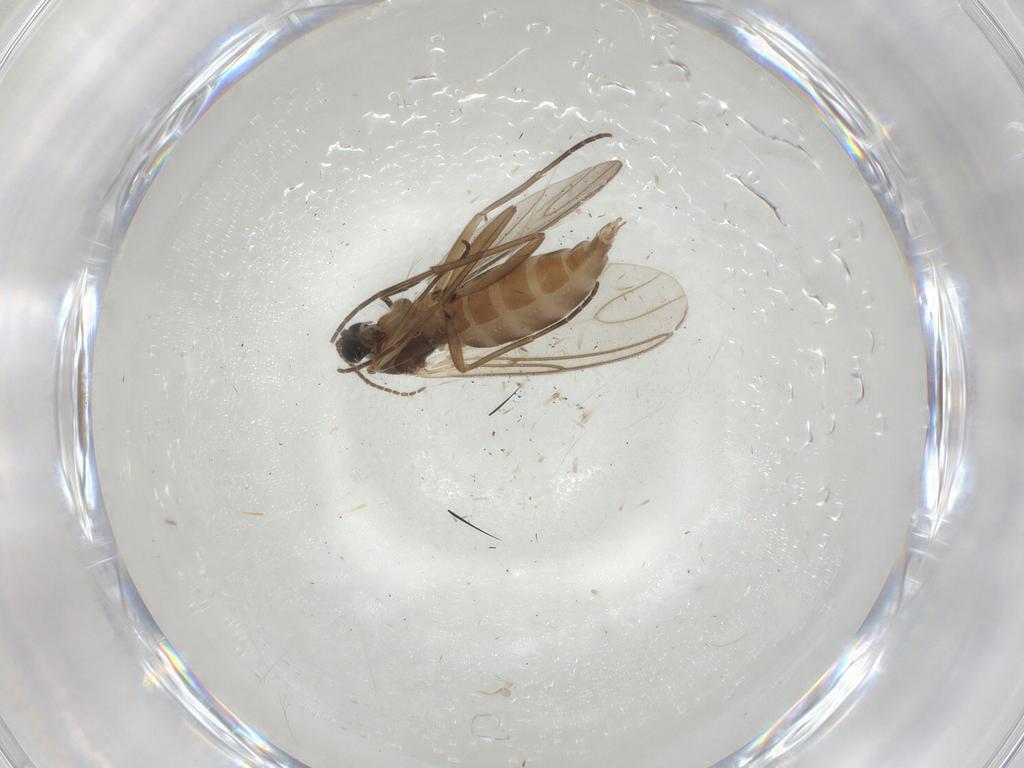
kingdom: Animalia
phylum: Arthropoda
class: Insecta
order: Diptera
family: Sciaridae
